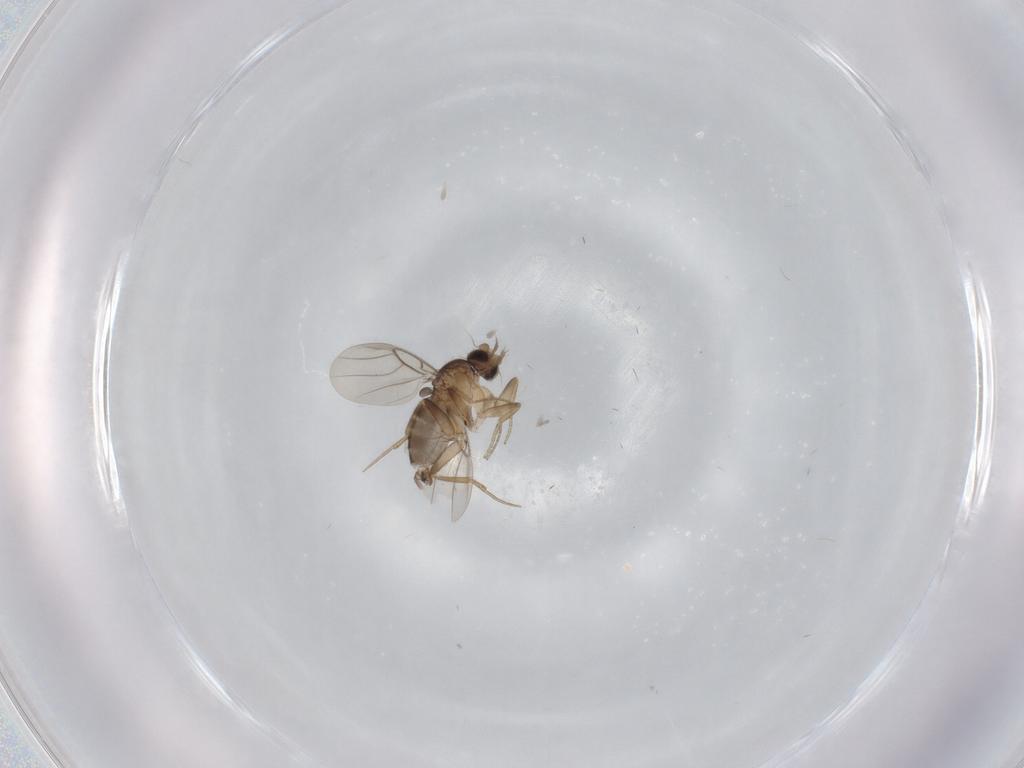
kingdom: Animalia
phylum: Arthropoda
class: Insecta
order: Diptera
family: Phoridae
